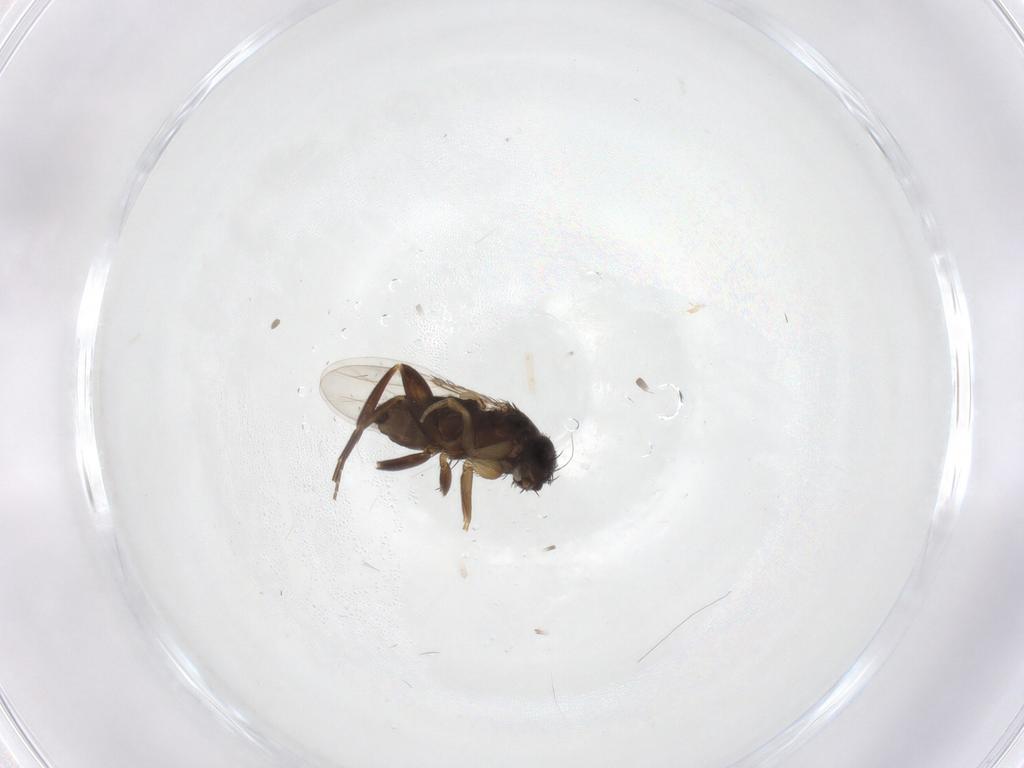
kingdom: Animalia
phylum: Arthropoda
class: Insecta
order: Diptera
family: Phoridae
